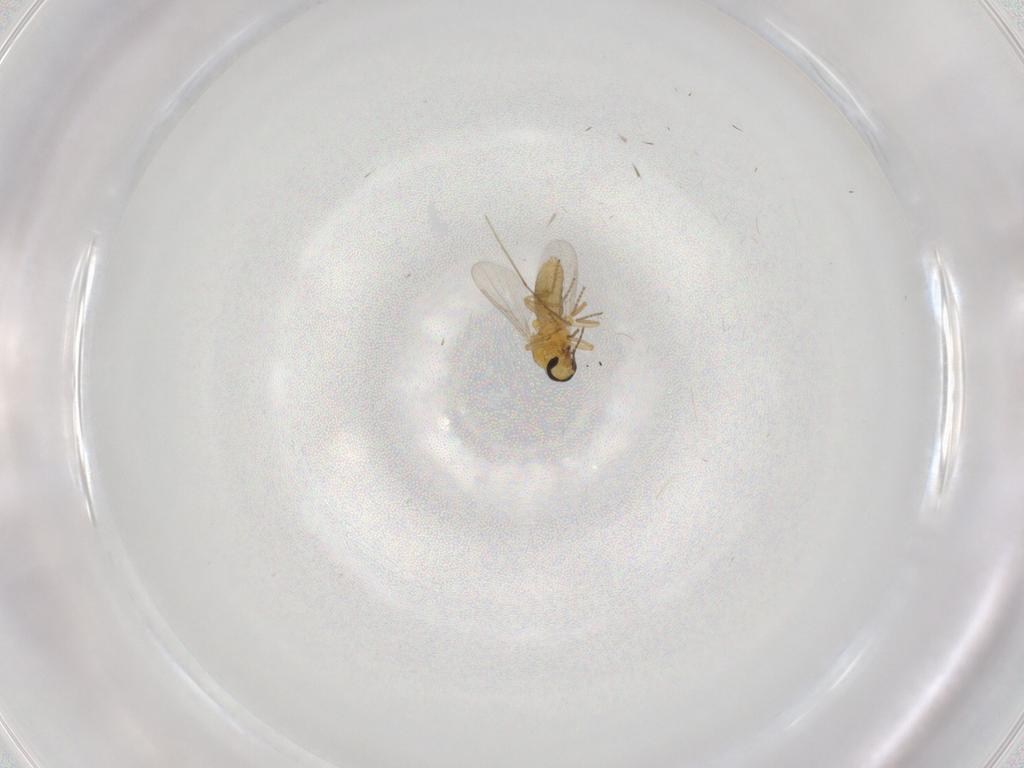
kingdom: Animalia
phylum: Arthropoda
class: Insecta
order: Diptera
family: Ceratopogonidae
